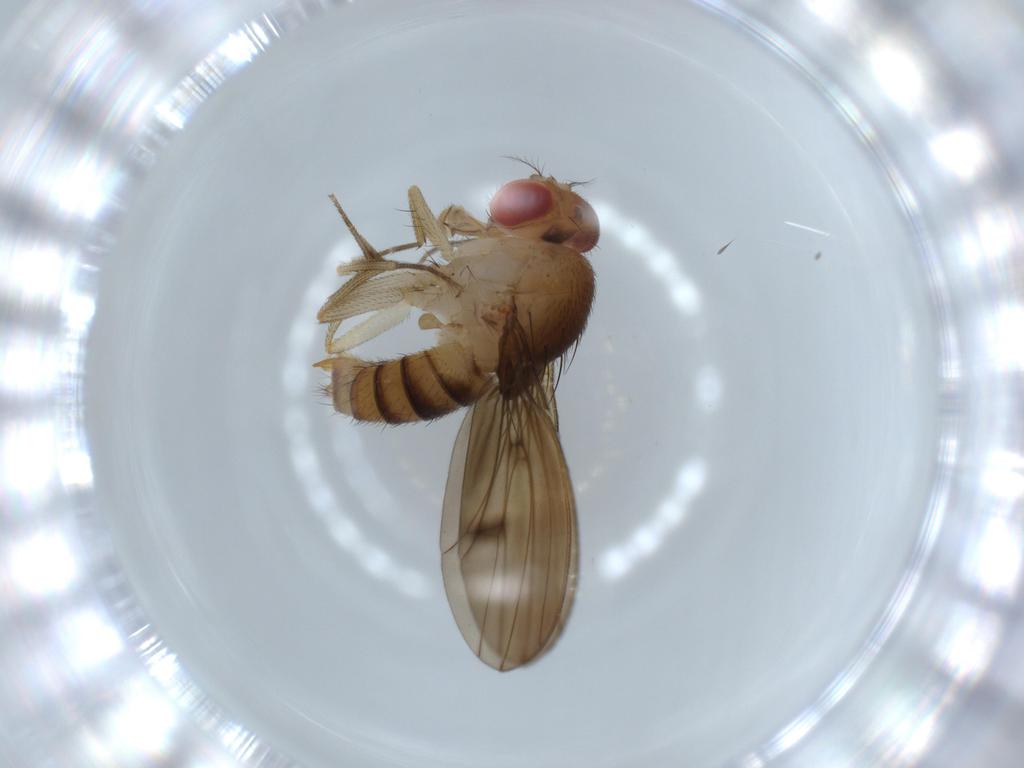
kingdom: Animalia
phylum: Arthropoda
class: Insecta
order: Diptera
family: Drosophilidae
